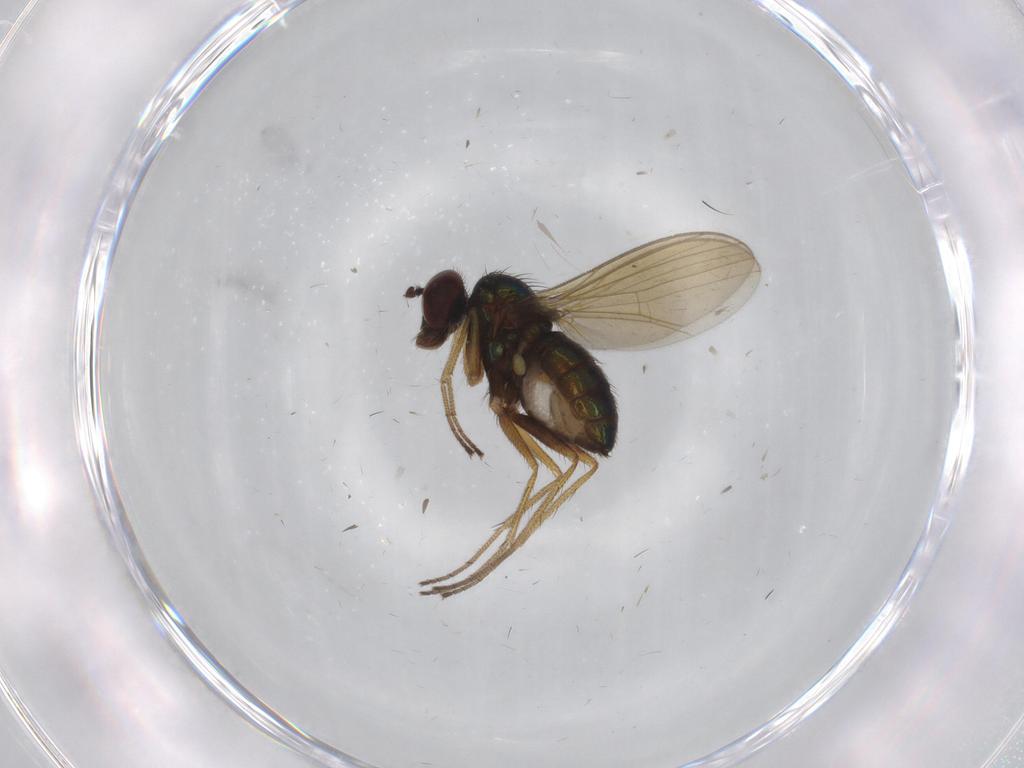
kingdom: Animalia
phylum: Arthropoda
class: Insecta
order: Diptera
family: Dolichopodidae
